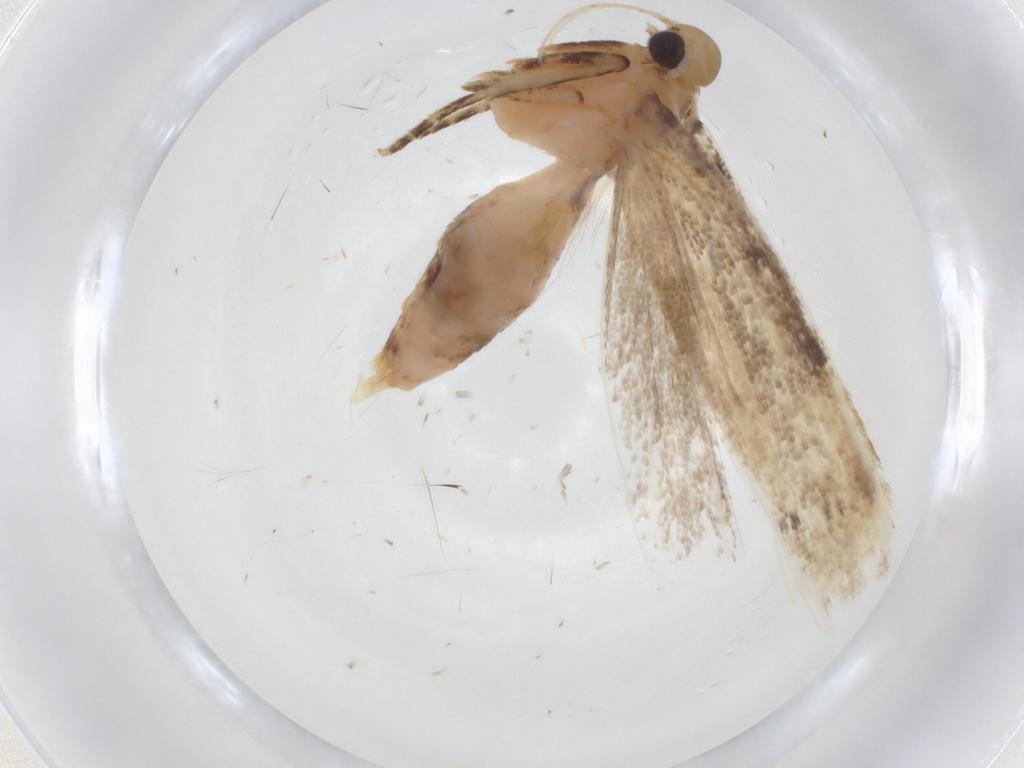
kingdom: Animalia
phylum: Arthropoda
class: Insecta
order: Lepidoptera
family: Gelechiidae
